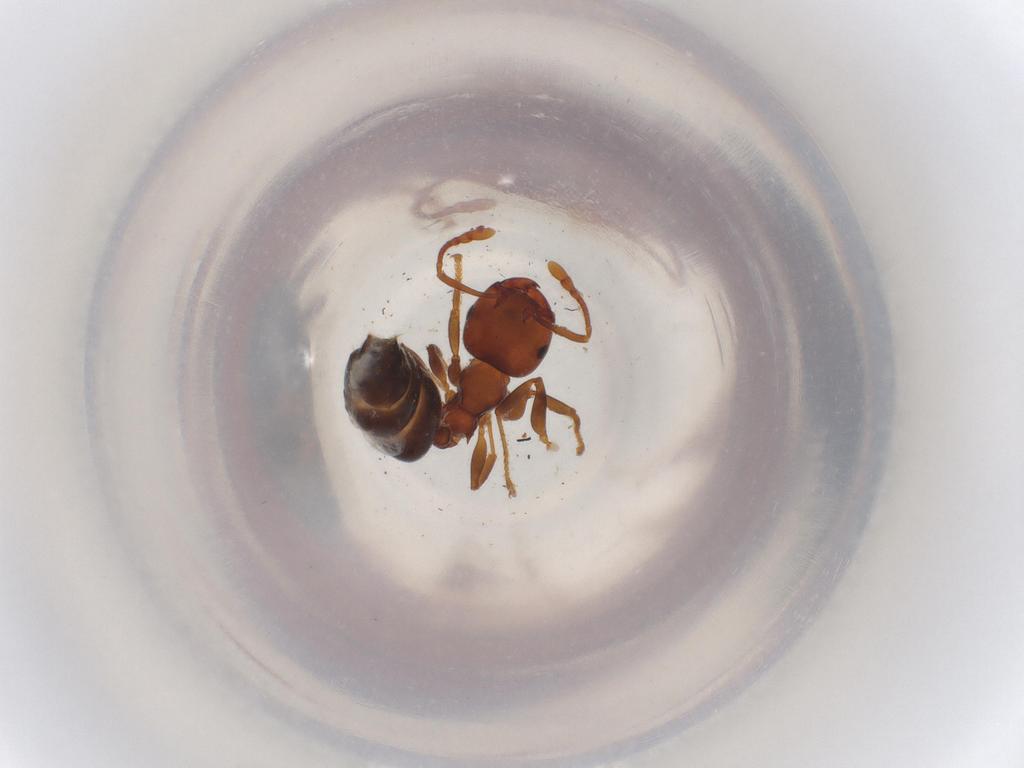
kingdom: Animalia
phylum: Arthropoda
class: Insecta
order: Hymenoptera
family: Formicidae
